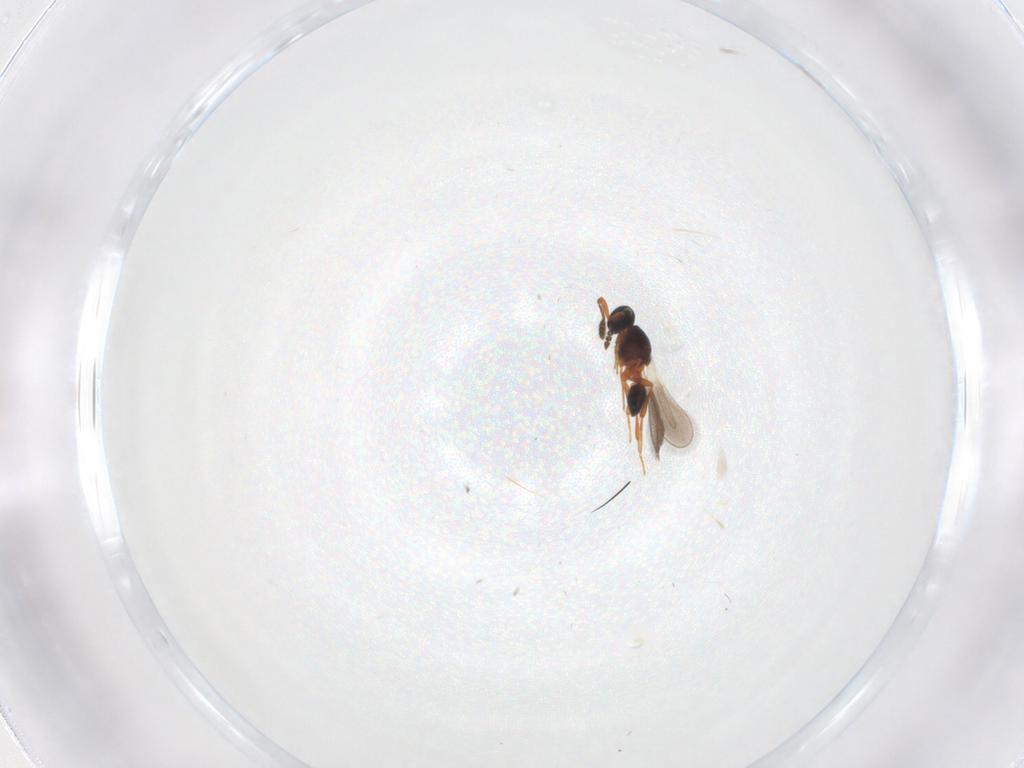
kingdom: Animalia
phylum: Arthropoda
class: Insecta
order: Hymenoptera
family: Platygastridae
